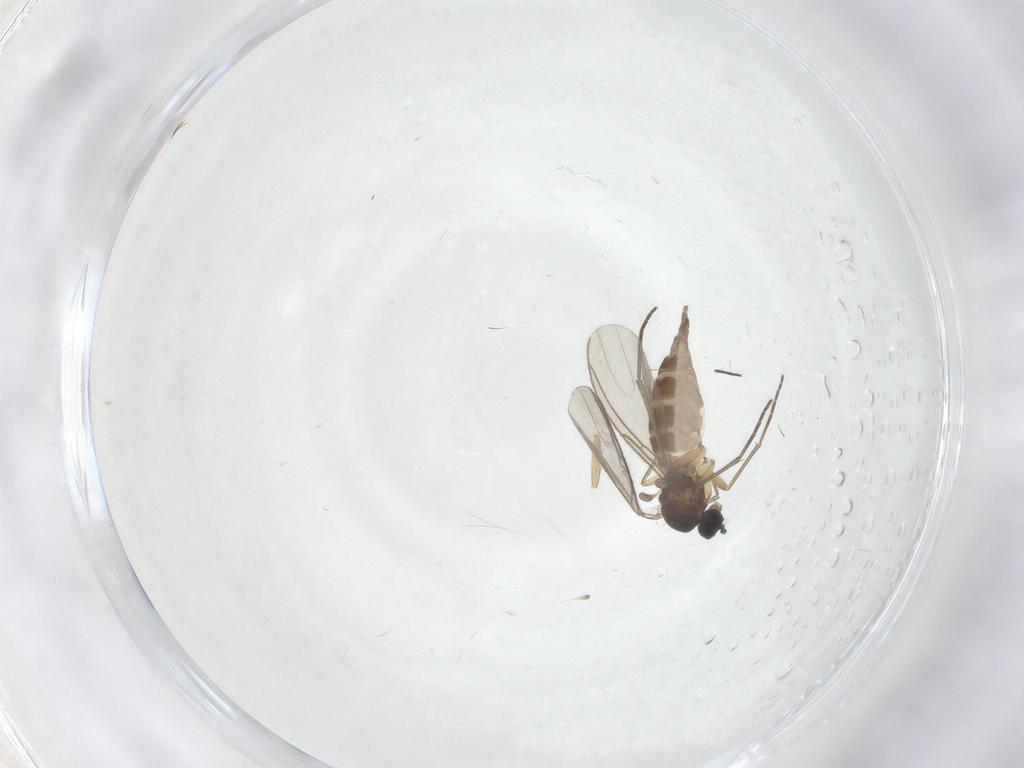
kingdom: Animalia
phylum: Arthropoda
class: Insecta
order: Diptera
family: Sciaridae
